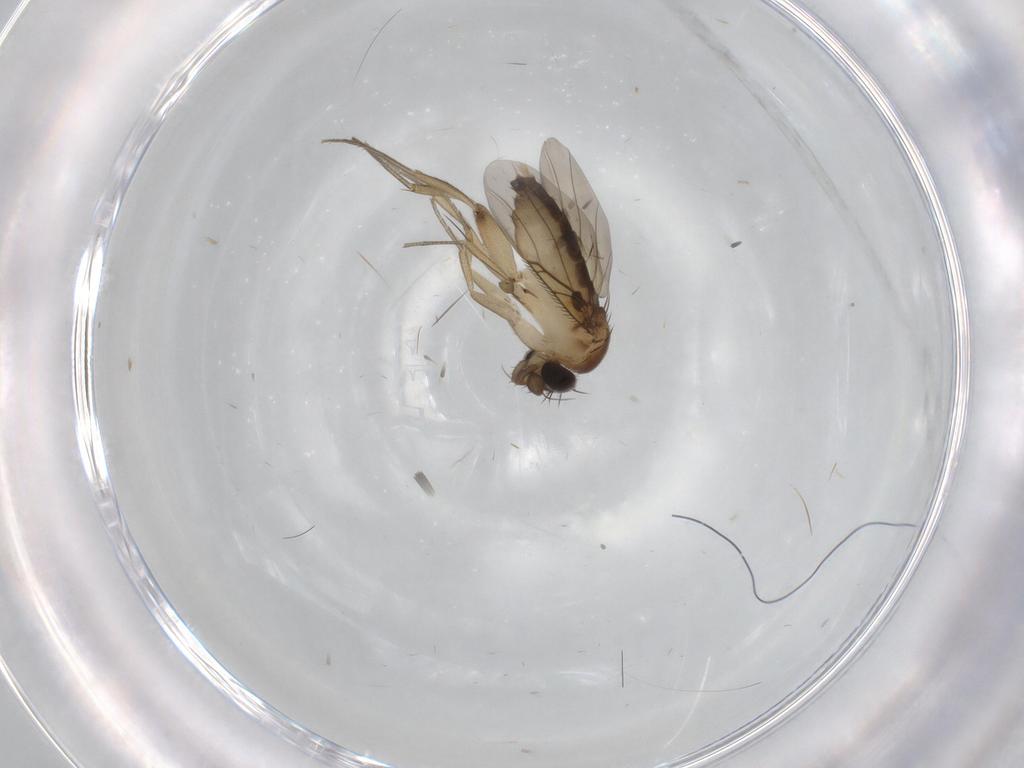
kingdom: Animalia
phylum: Arthropoda
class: Insecta
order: Diptera
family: Phoridae
